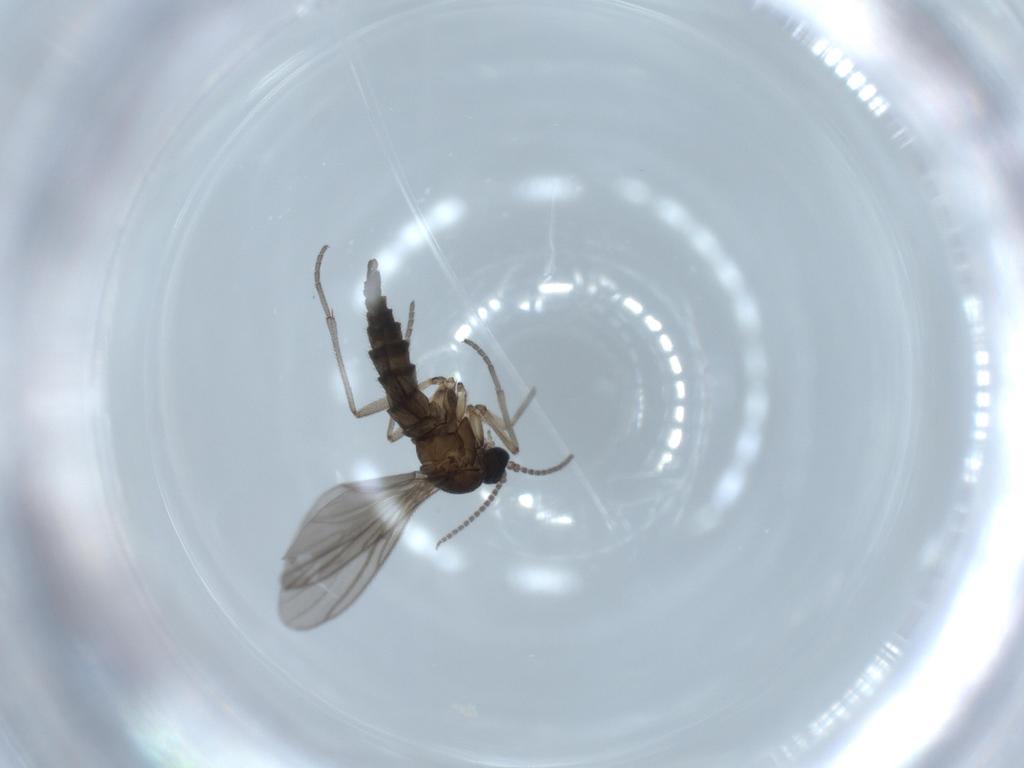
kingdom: Animalia
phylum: Arthropoda
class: Insecta
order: Diptera
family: Sciaridae
